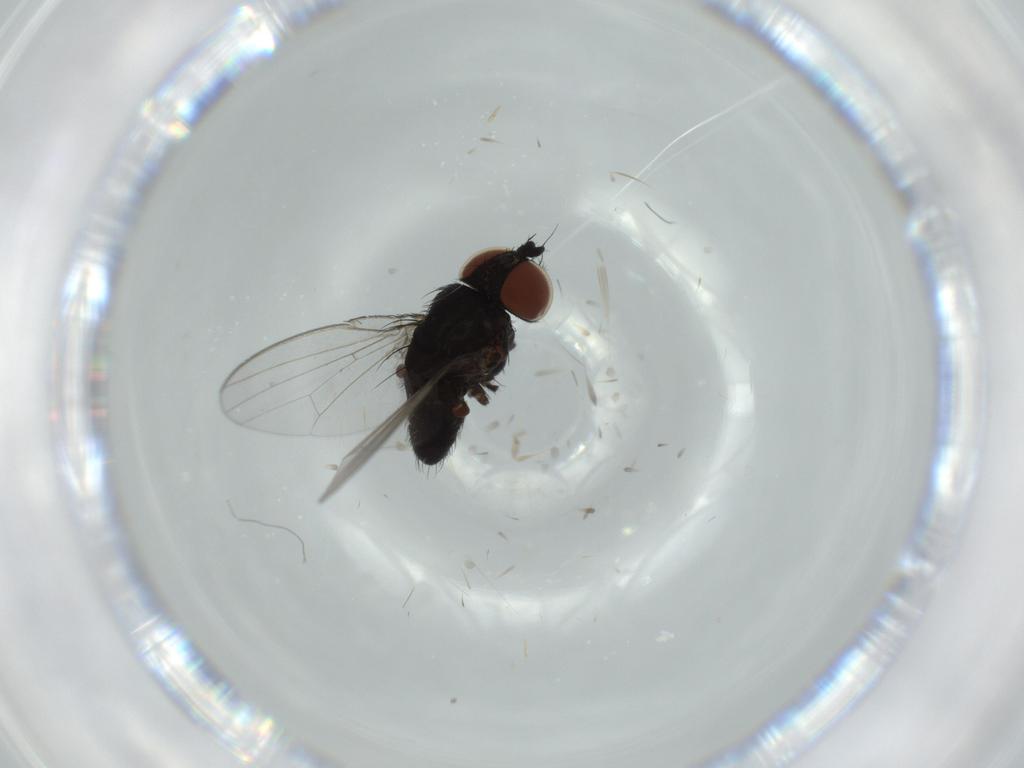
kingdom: Animalia
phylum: Arthropoda
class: Insecta
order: Diptera
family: Milichiidae
